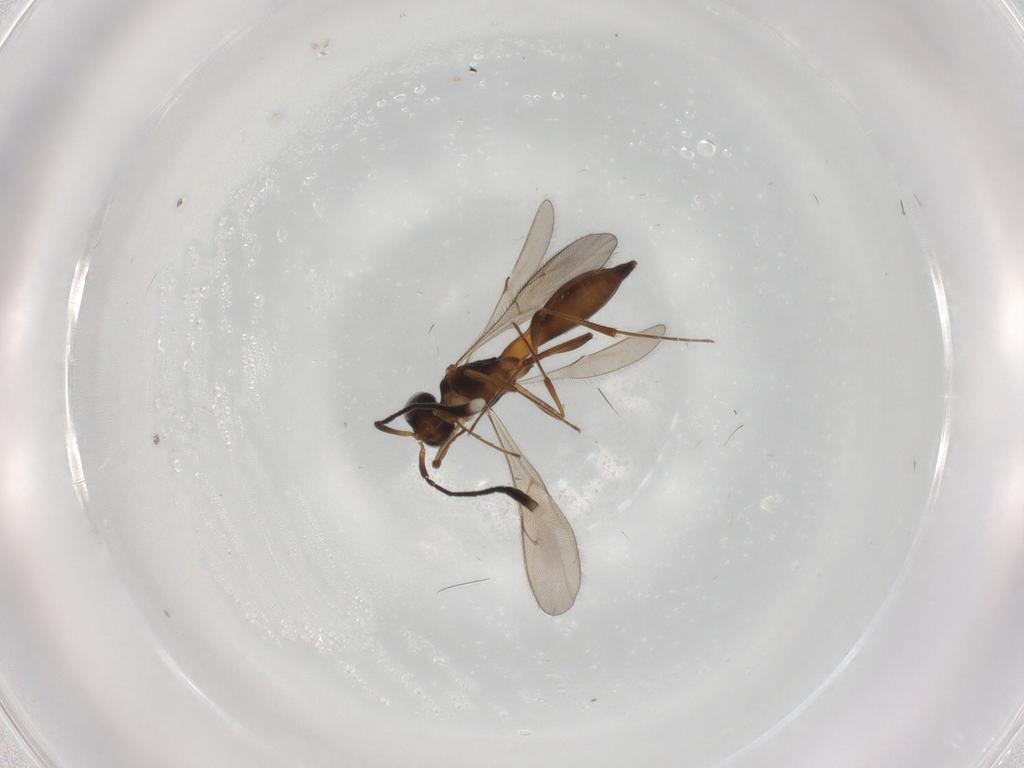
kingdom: Animalia
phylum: Arthropoda
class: Insecta
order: Hymenoptera
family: Scelionidae
